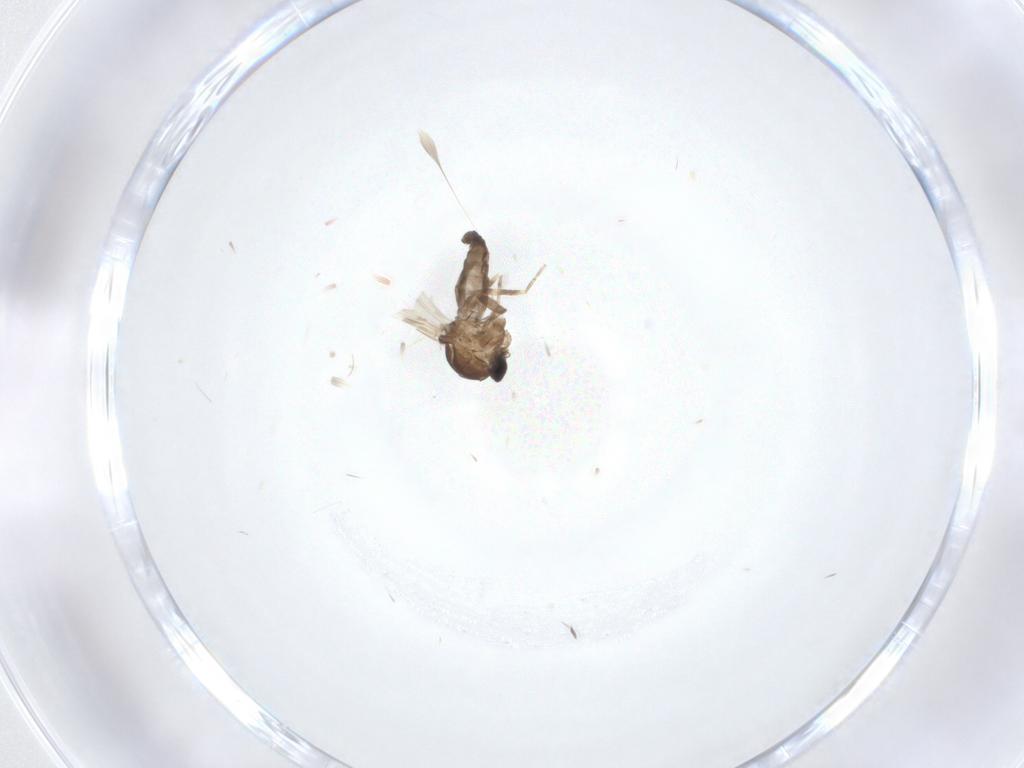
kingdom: Animalia
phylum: Arthropoda
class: Insecta
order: Diptera
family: Ceratopogonidae
